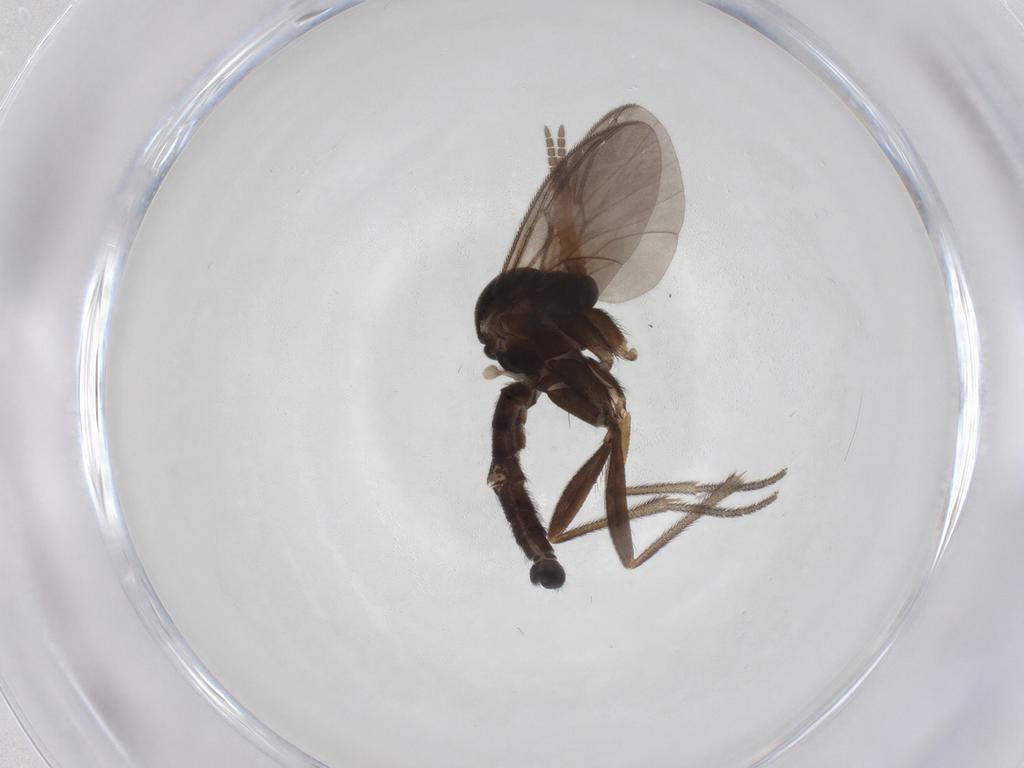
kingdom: Animalia
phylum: Arthropoda
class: Insecta
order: Diptera
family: Mycetophilidae
